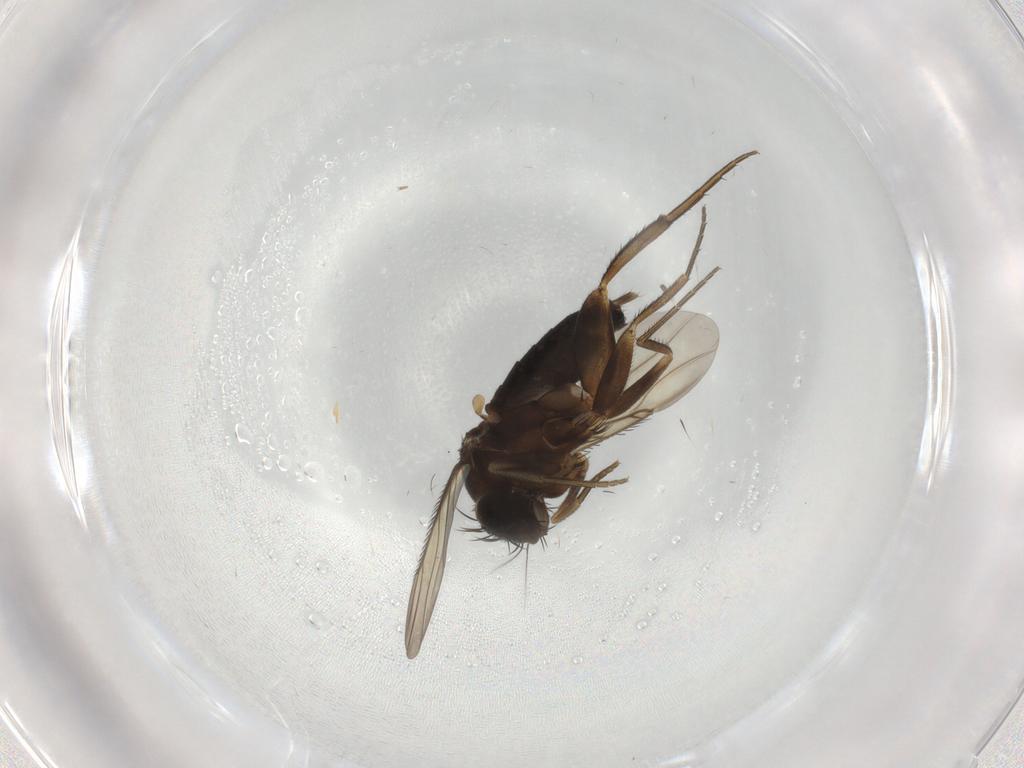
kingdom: Animalia
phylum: Arthropoda
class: Insecta
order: Diptera
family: Phoridae
